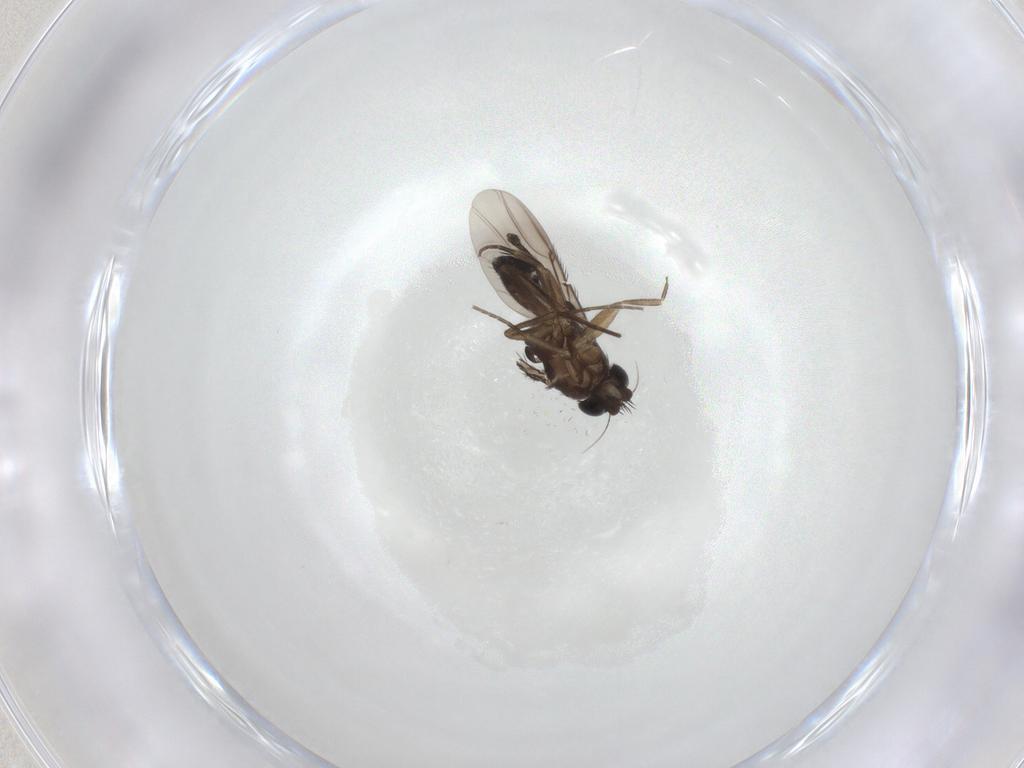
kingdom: Animalia
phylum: Arthropoda
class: Insecta
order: Diptera
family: Phoridae
